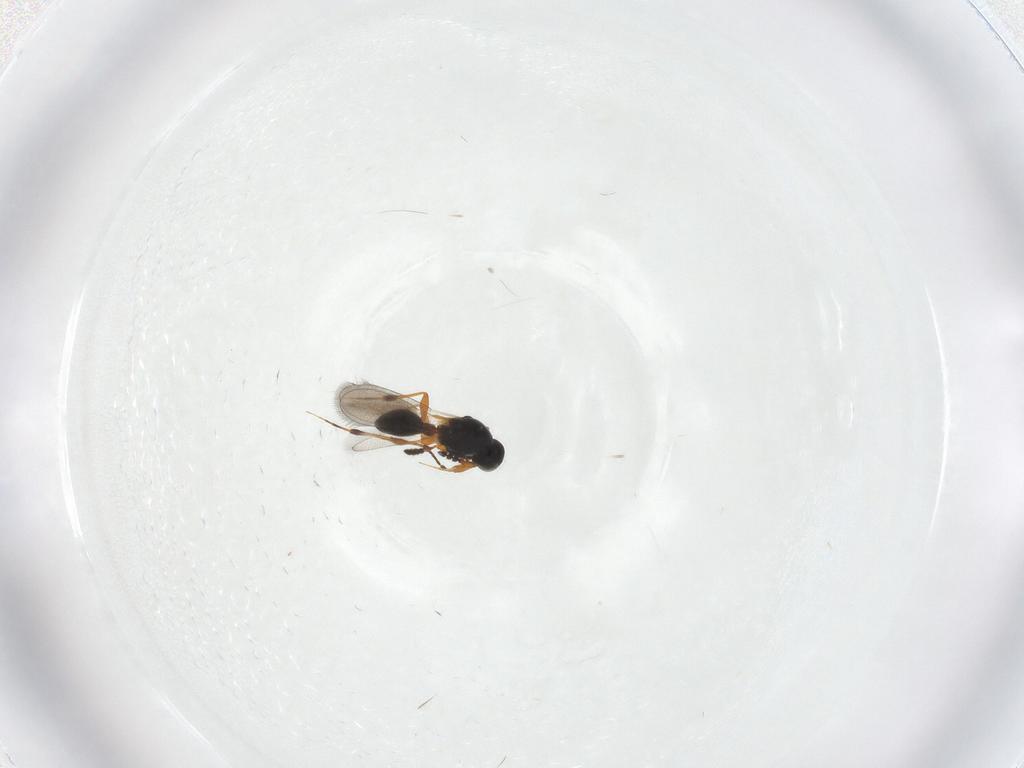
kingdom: Animalia
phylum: Arthropoda
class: Insecta
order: Hymenoptera
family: Platygastridae
